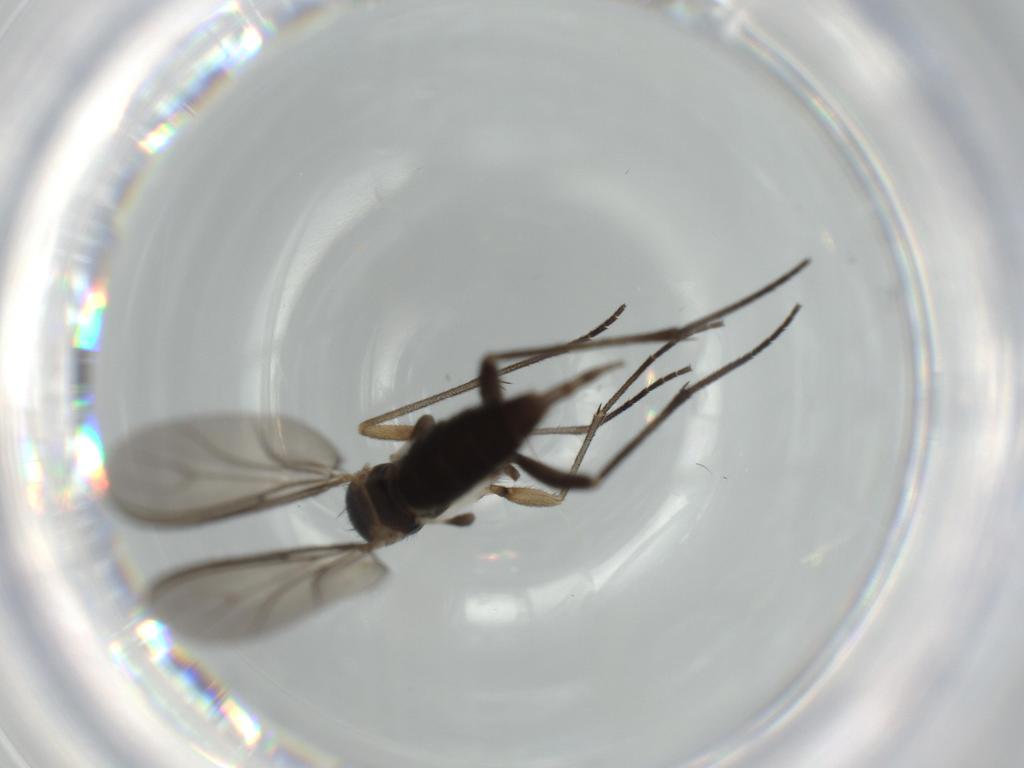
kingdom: Animalia
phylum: Arthropoda
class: Insecta
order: Diptera
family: Sciaridae
